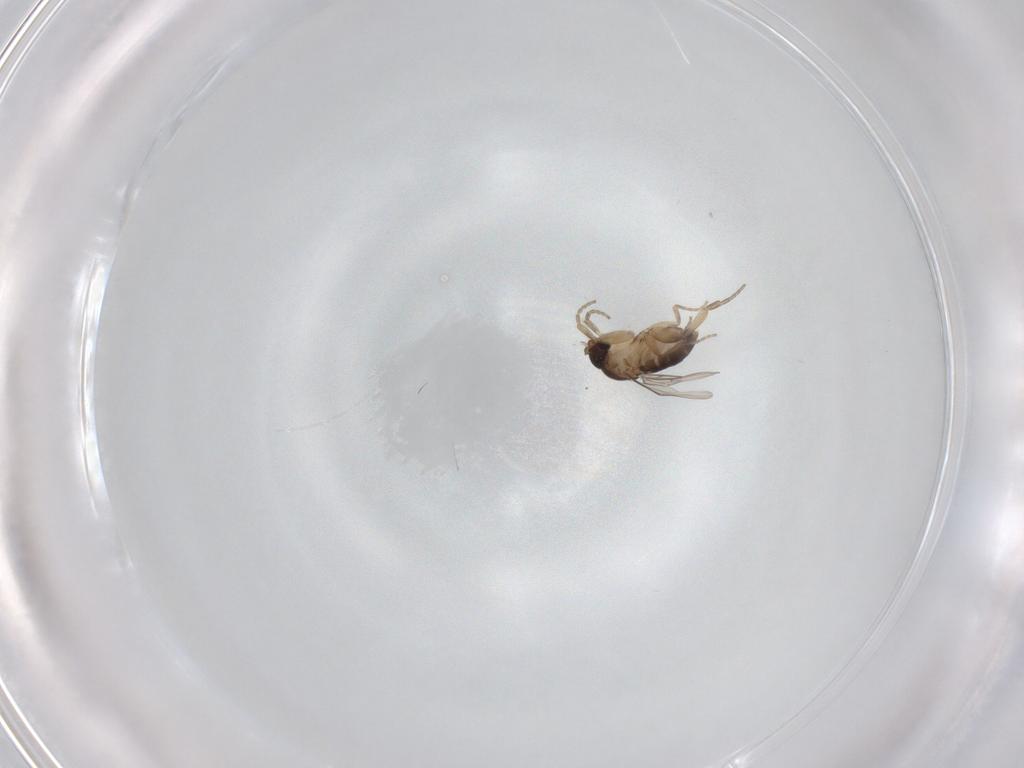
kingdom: Animalia
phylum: Arthropoda
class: Insecta
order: Diptera
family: Phoridae
